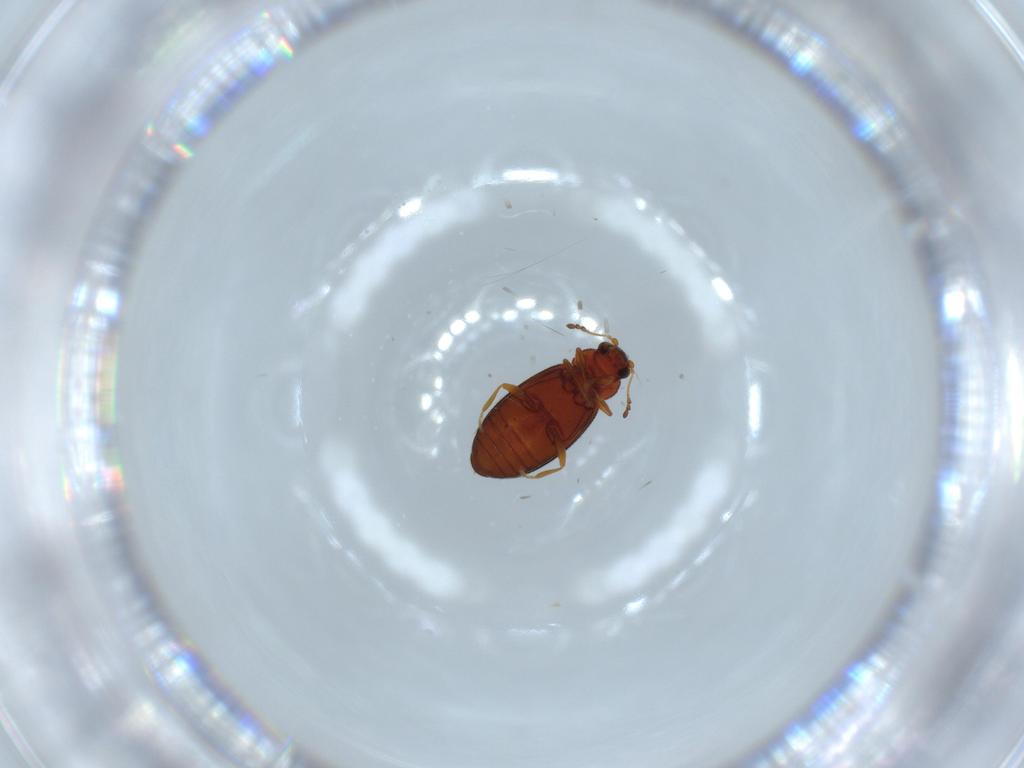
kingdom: Animalia
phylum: Arthropoda
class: Insecta
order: Coleoptera
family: Latridiidae
